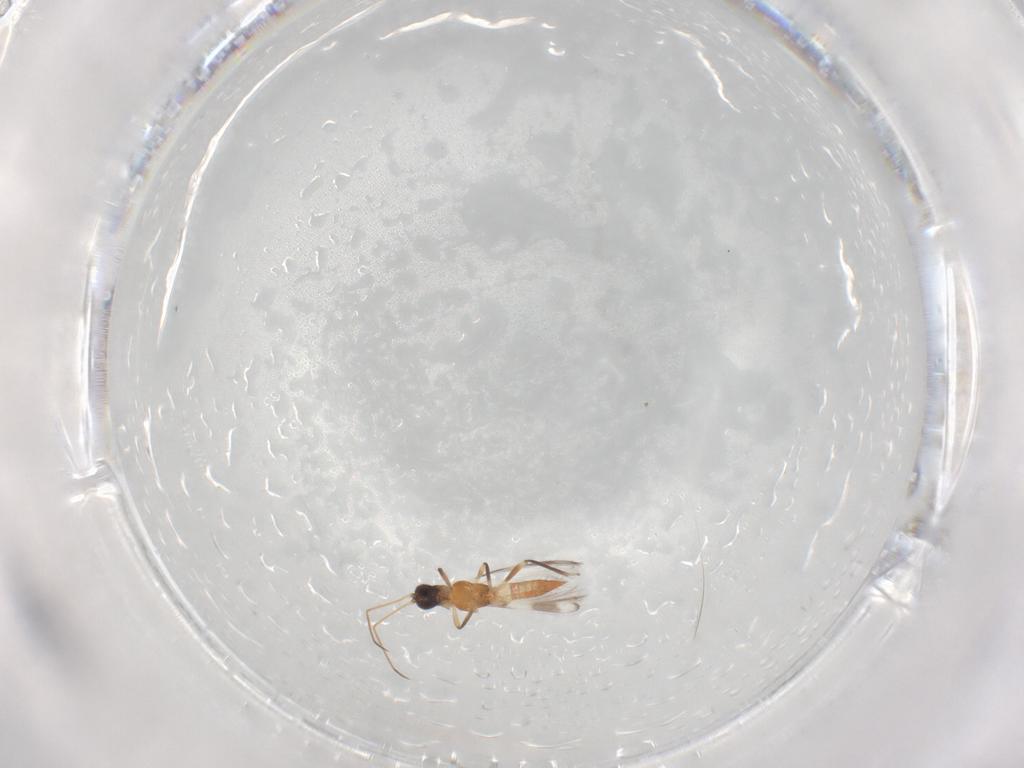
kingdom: Animalia
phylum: Arthropoda
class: Insecta
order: Thysanoptera
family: Aeolothripidae
